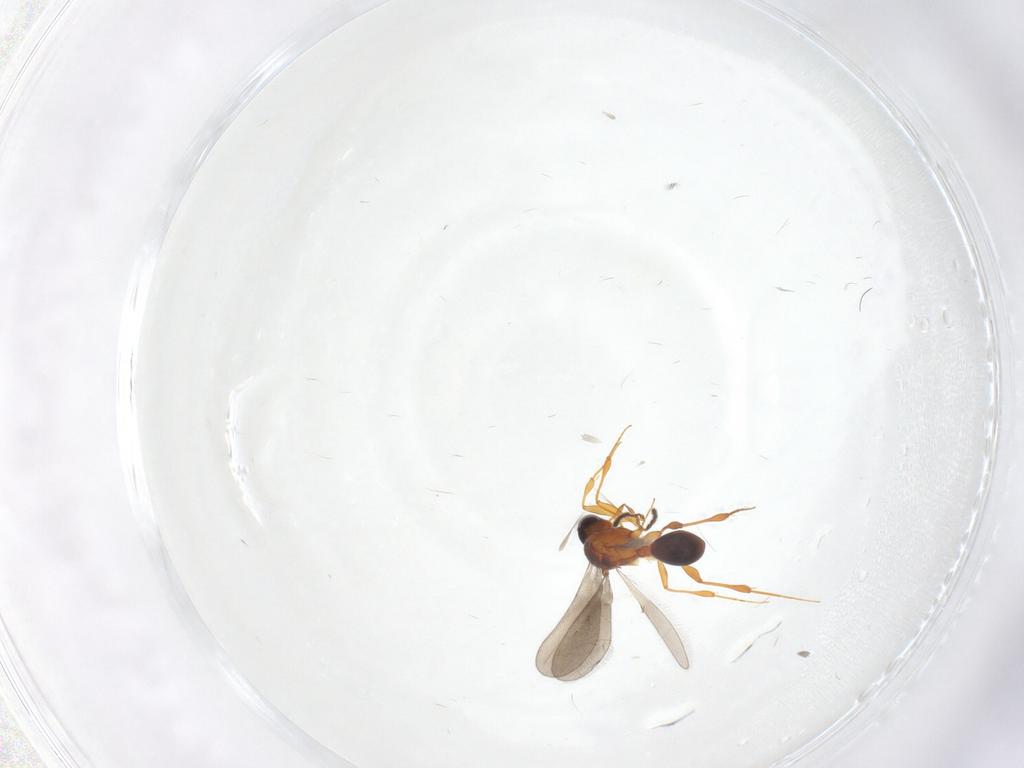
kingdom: Animalia
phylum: Arthropoda
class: Insecta
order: Hymenoptera
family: Platygastridae
